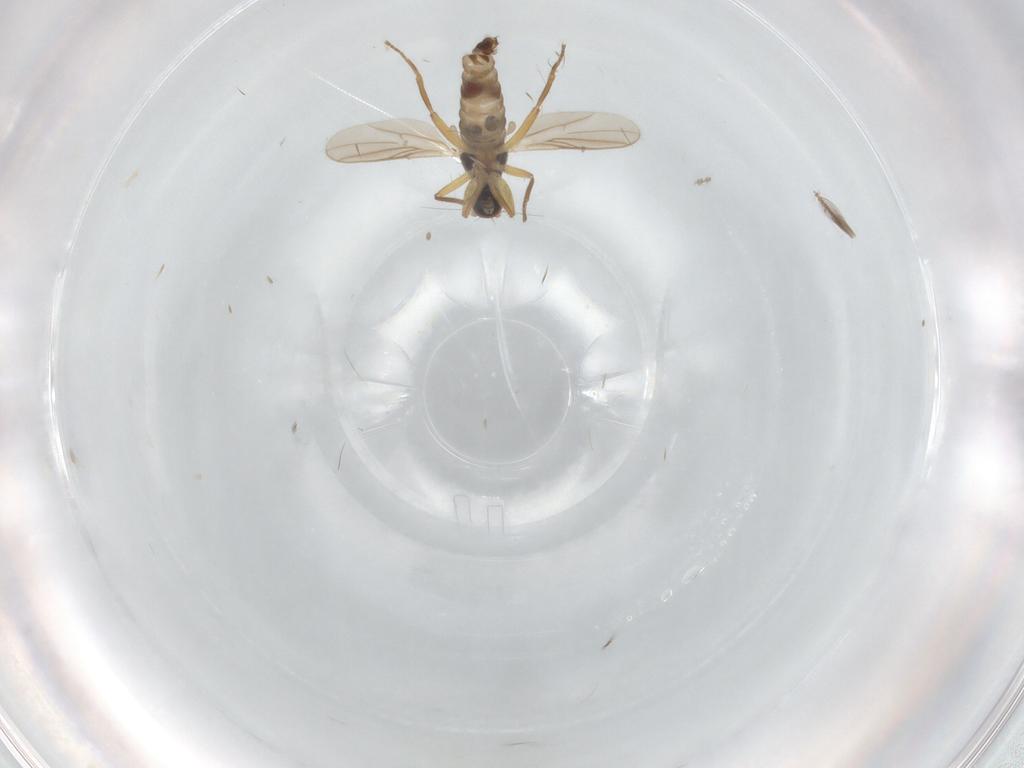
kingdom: Animalia
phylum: Arthropoda
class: Insecta
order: Diptera
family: Hybotidae
